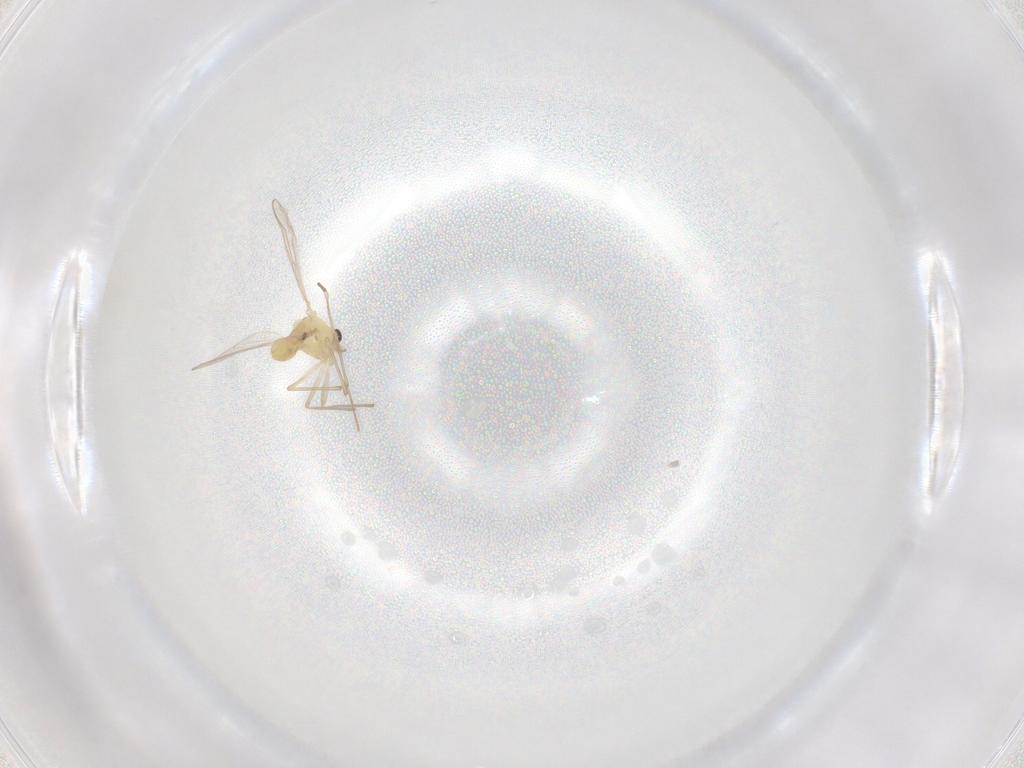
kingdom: Animalia
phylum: Arthropoda
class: Insecta
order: Diptera
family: Chironomidae
